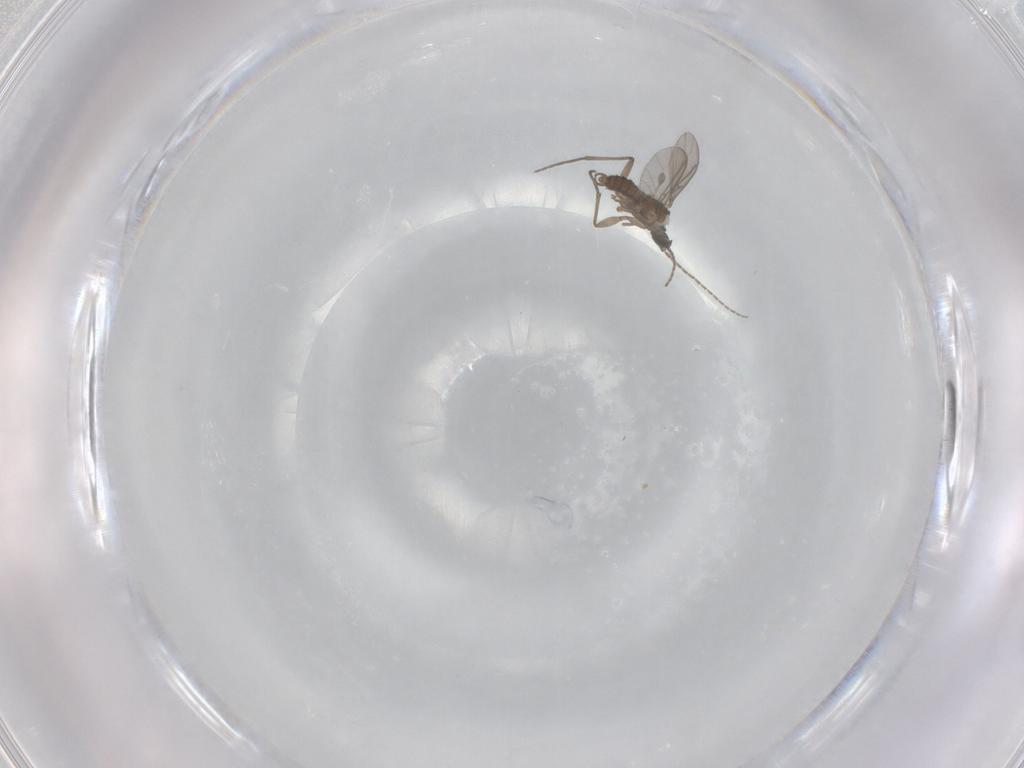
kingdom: Animalia
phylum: Arthropoda
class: Insecta
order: Diptera
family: Sciaridae
